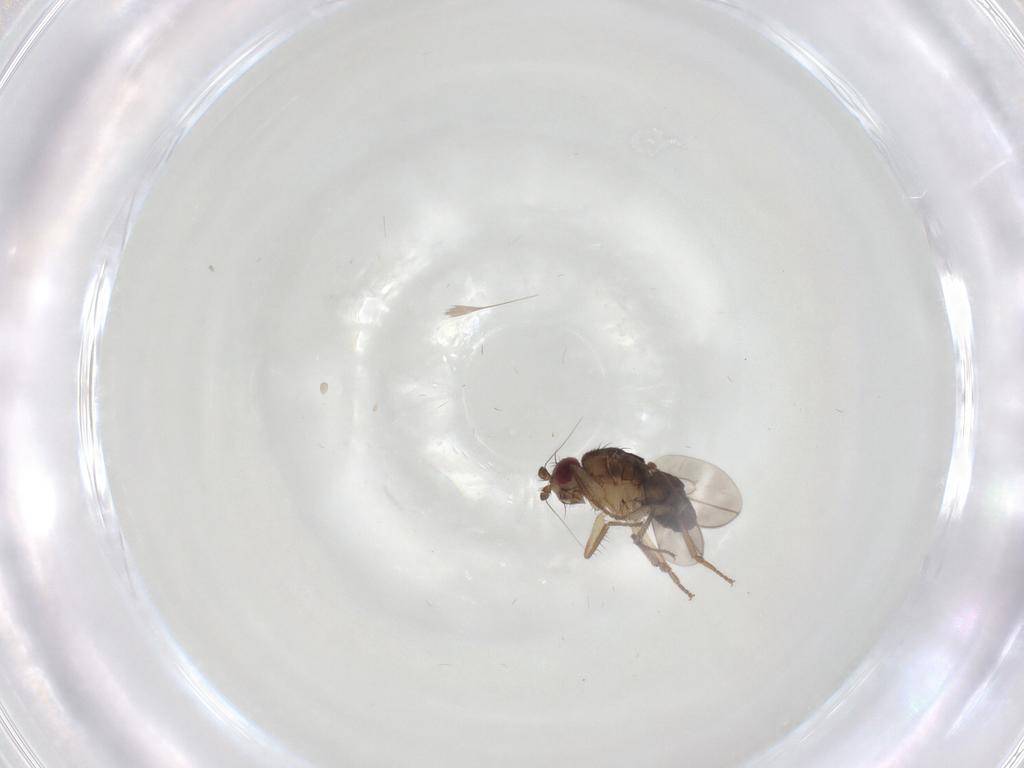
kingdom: Animalia
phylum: Arthropoda
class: Insecta
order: Diptera
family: Sphaeroceridae
